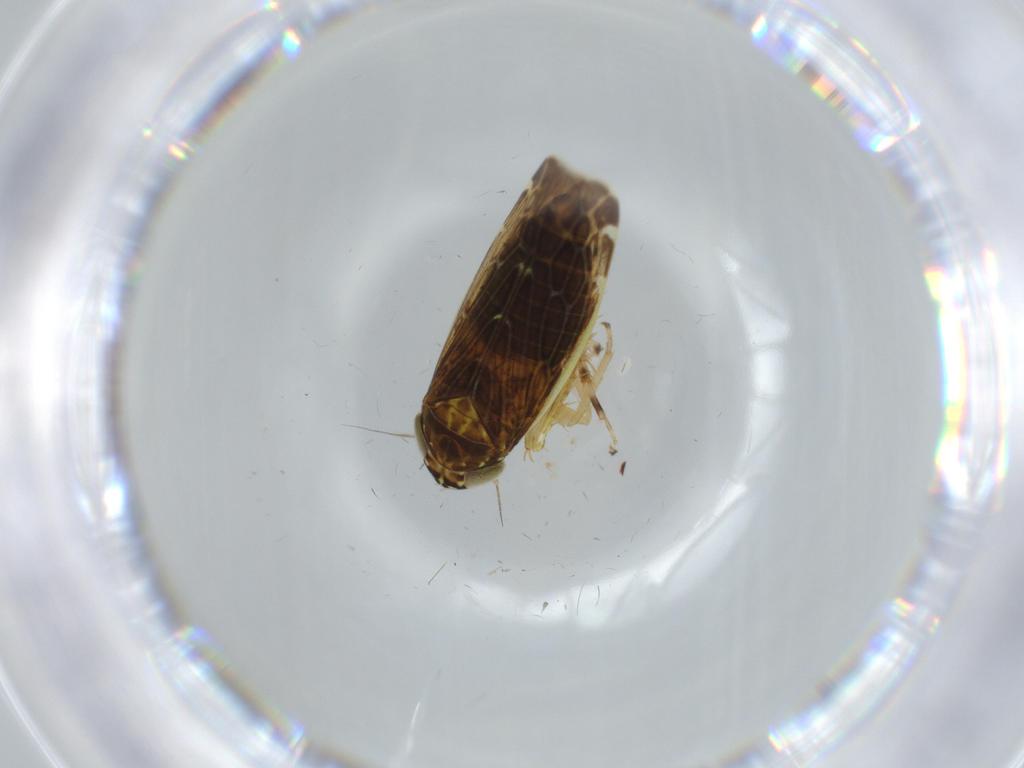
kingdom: Animalia
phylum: Arthropoda
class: Insecta
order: Hemiptera
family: Cicadellidae
